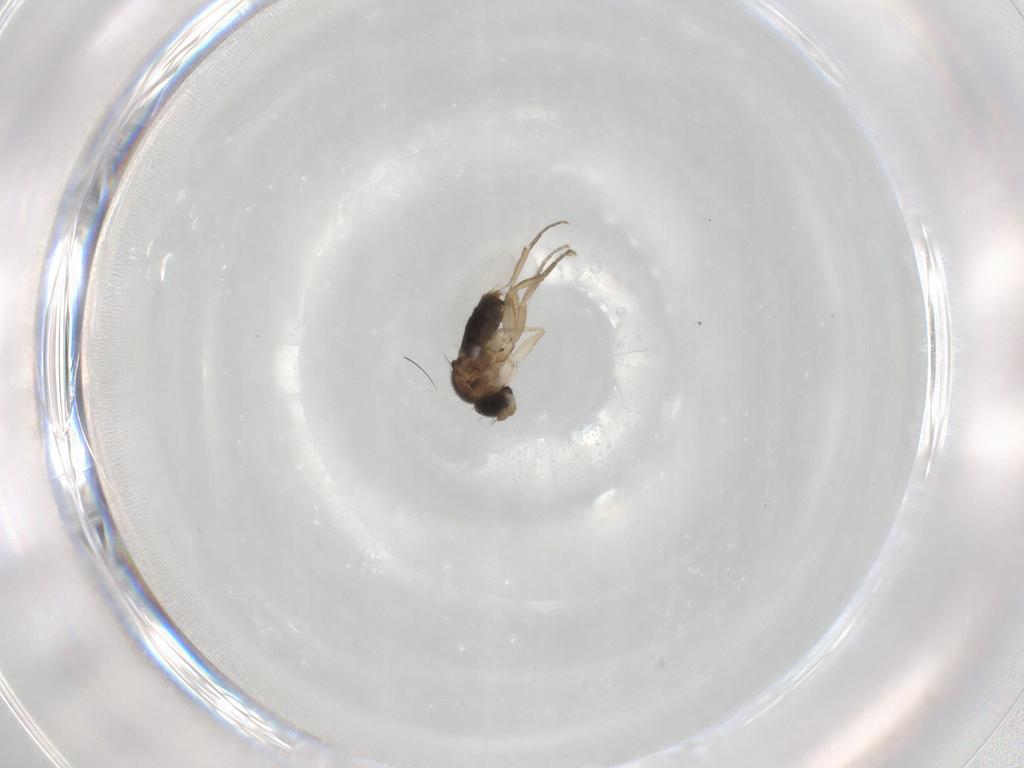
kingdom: Animalia
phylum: Arthropoda
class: Insecta
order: Diptera
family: Phoridae
